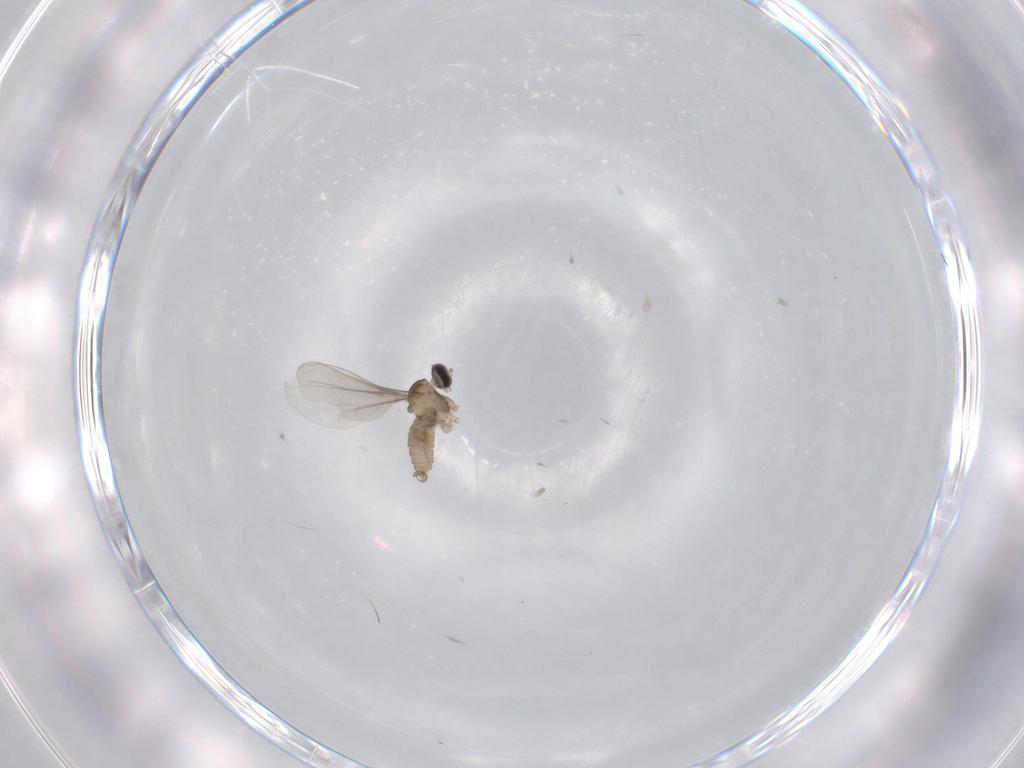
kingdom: Animalia
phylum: Arthropoda
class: Insecta
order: Diptera
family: Cecidomyiidae
